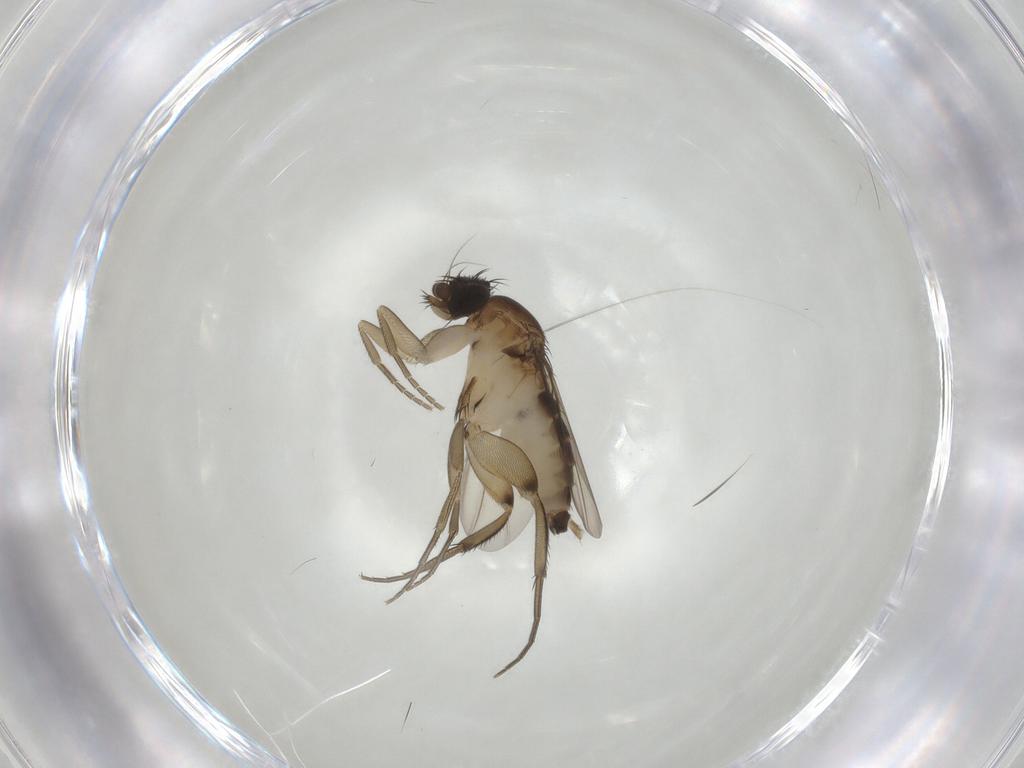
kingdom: Animalia
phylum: Arthropoda
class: Insecta
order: Diptera
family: Phoridae
